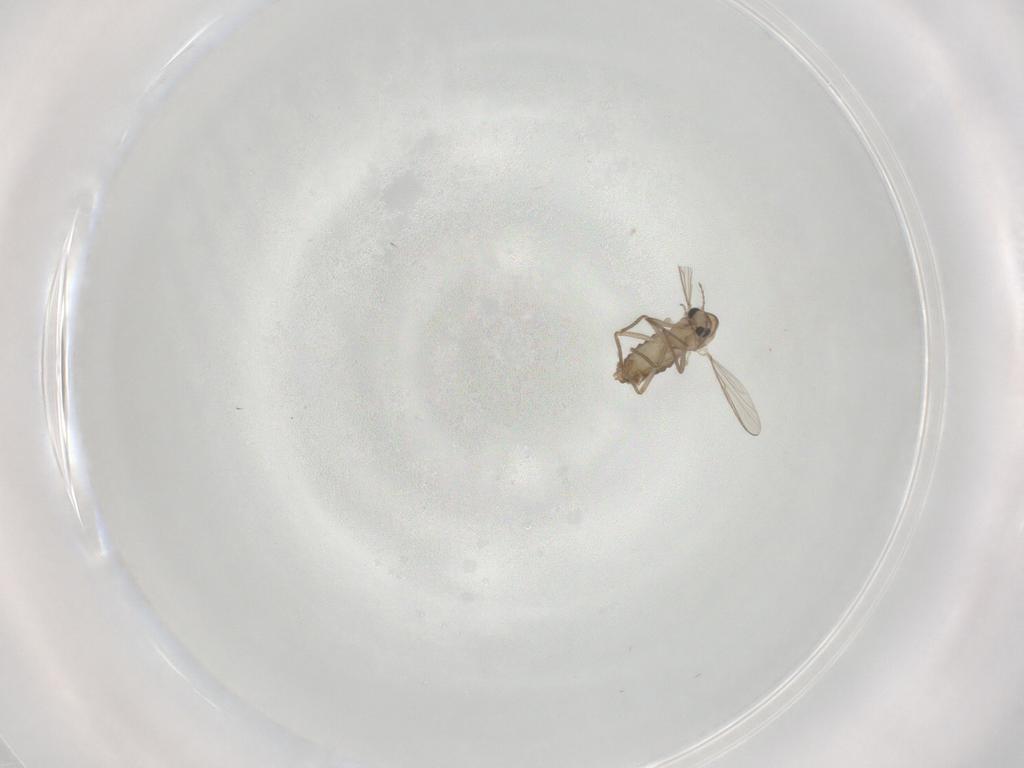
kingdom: Animalia
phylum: Arthropoda
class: Insecta
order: Diptera
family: Chironomidae
